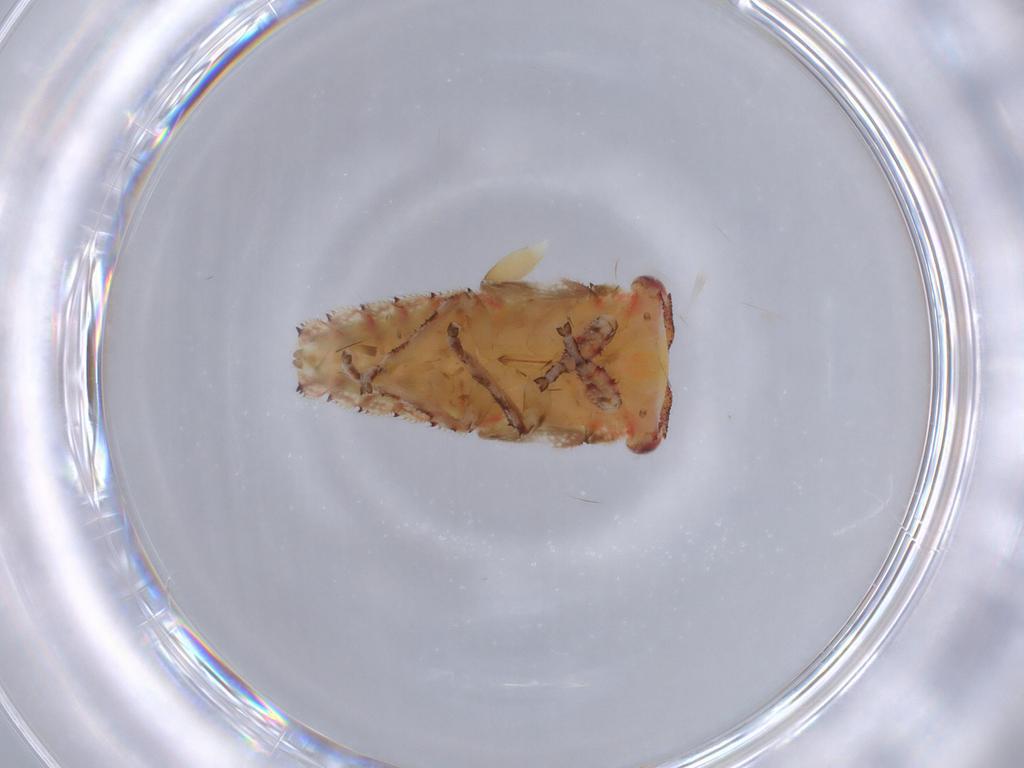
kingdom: Animalia
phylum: Arthropoda
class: Insecta
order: Hemiptera
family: Membracidae
